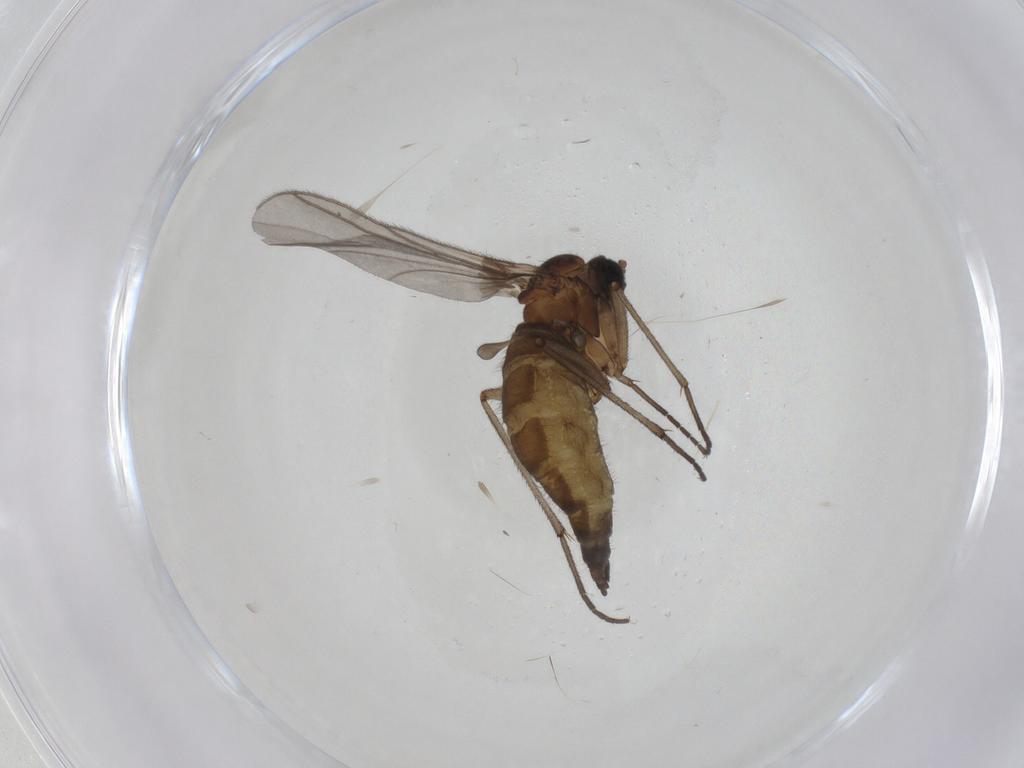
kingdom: Animalia
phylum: Arthropoda
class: Insecta
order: Diptera
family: Sciaridae
